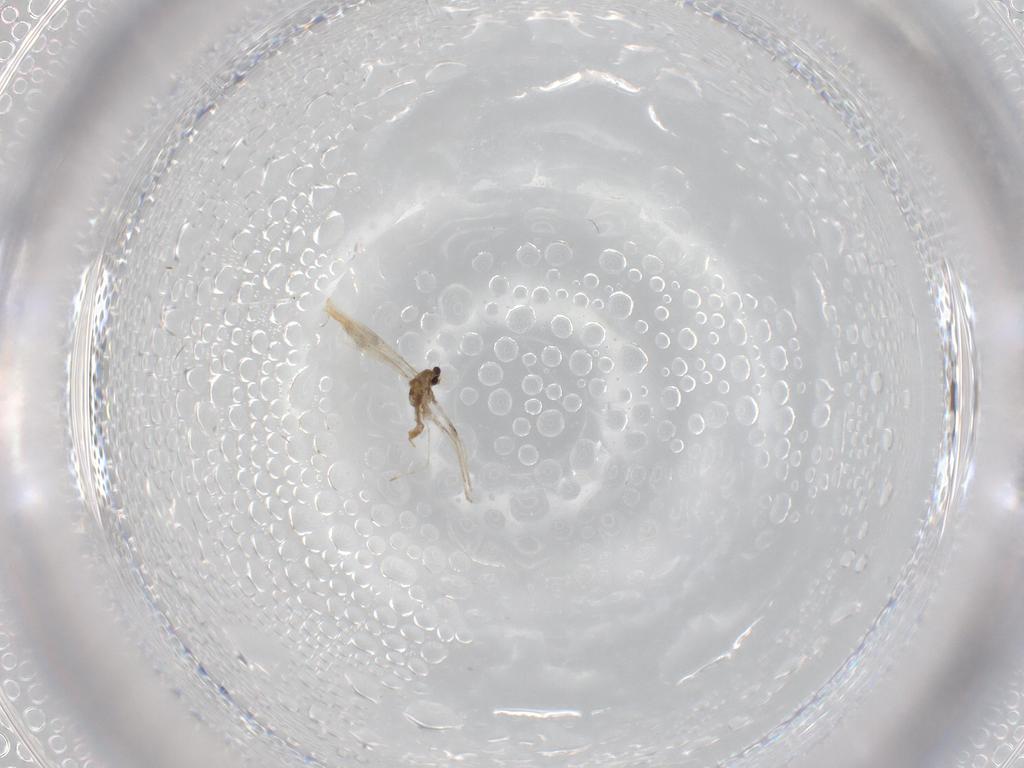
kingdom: Animalia
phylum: Arthropoda
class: Insecta
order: Diptera
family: Cecidomyiidae
